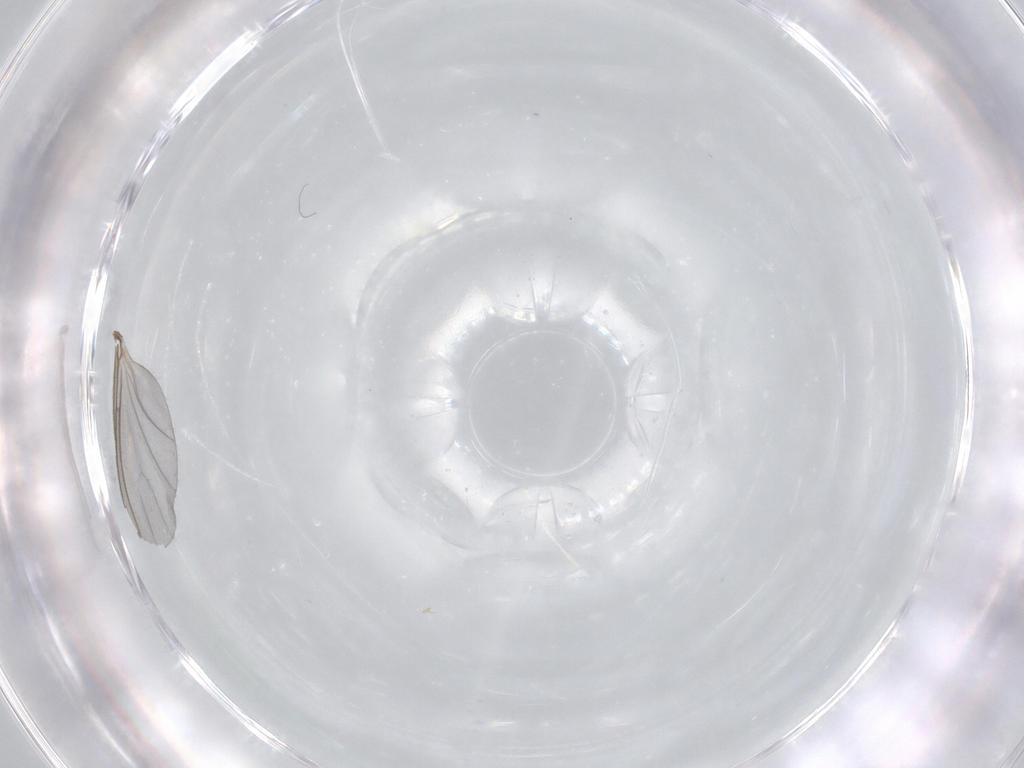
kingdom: Animalia
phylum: Arthropoda
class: Insecta
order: Diptera
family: Sciaridae
